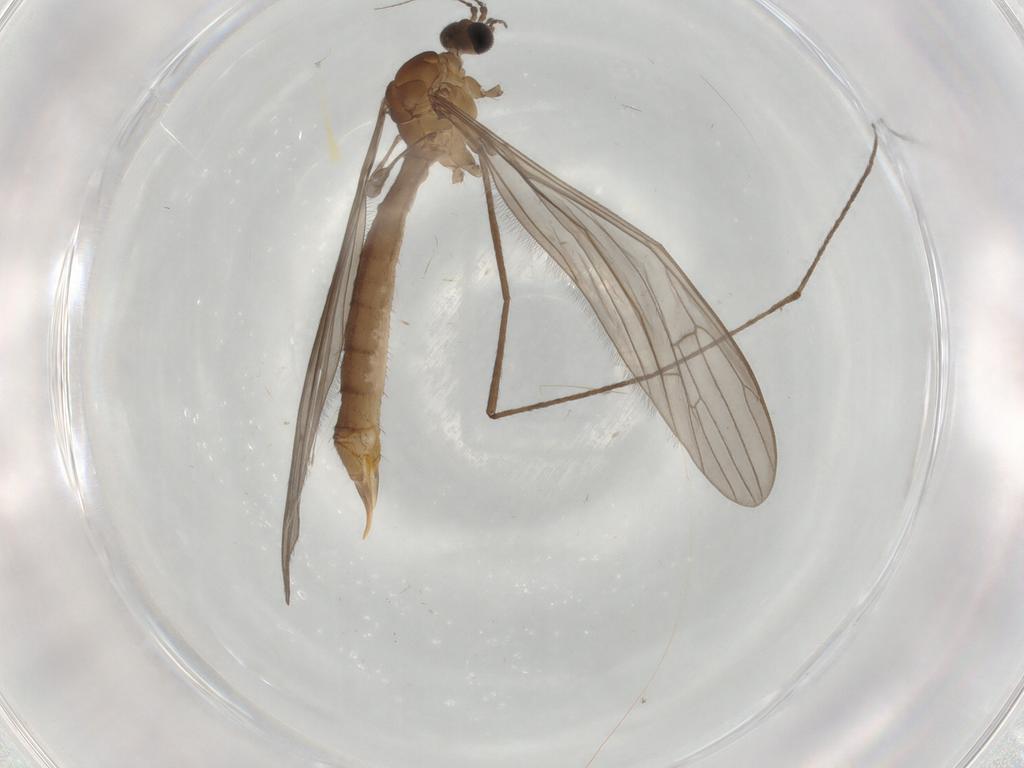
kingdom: Animalia
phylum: Arthropoda
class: Insecta
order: Diptera
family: Limoniidae
